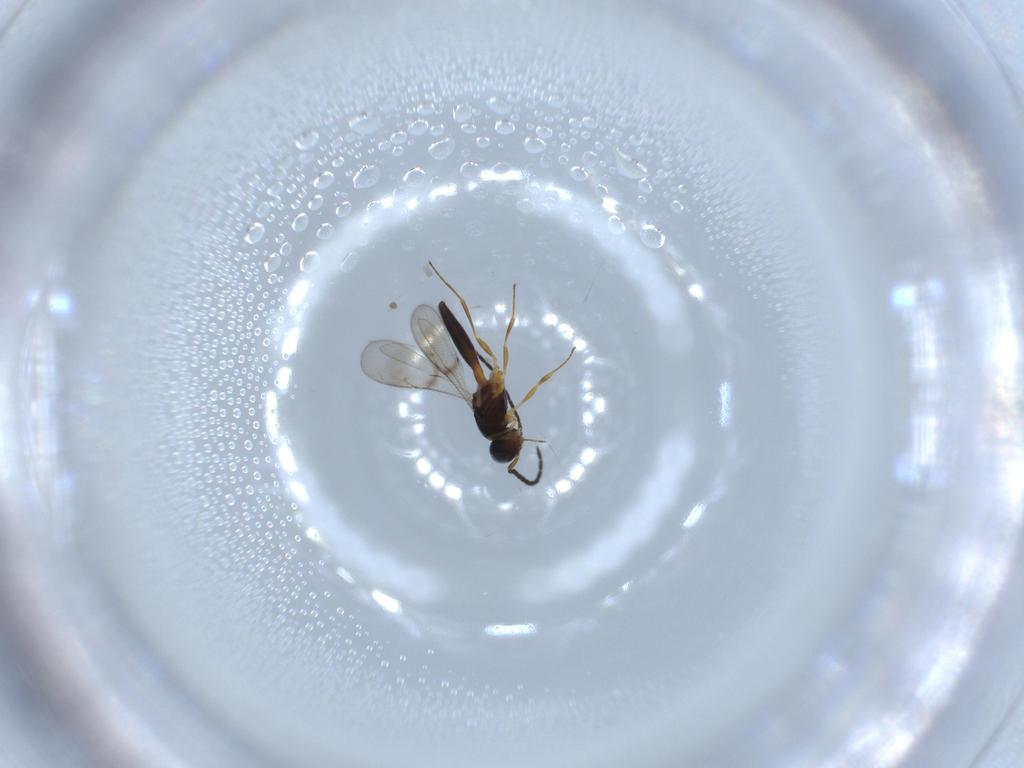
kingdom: Animalia
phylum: Arthropoda
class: Insecta
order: Hymenoptera
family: Scelionidae
